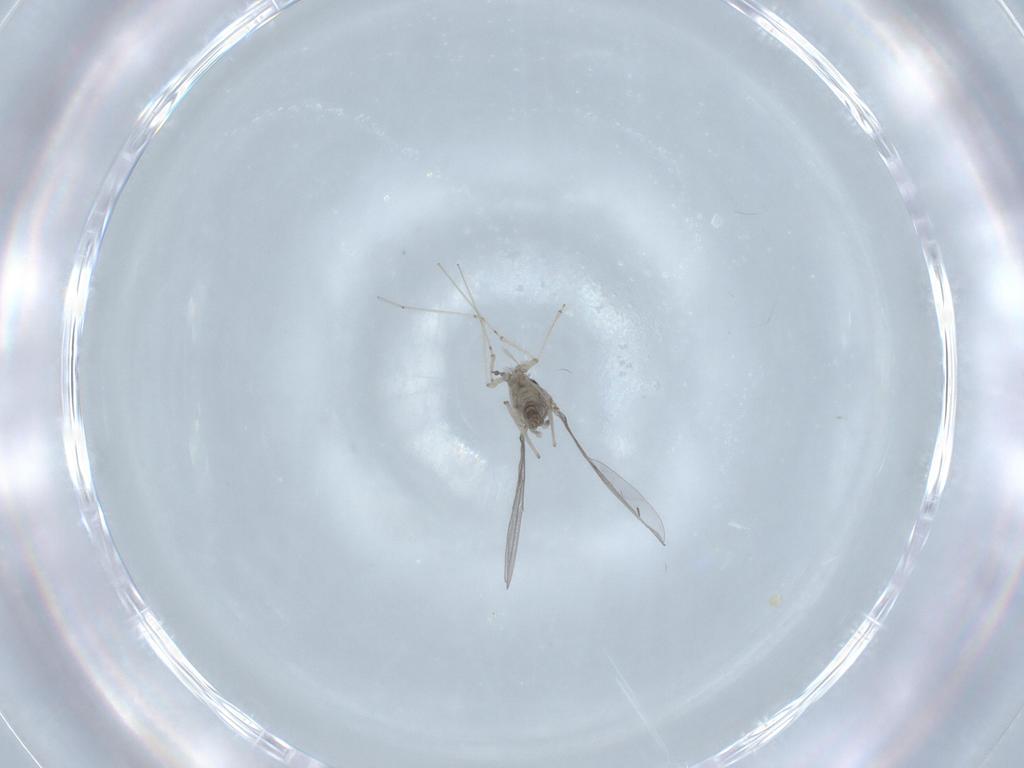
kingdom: Animalia
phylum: Arthropoda
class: Insecta
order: Diptera
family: Cecidomyiidae
